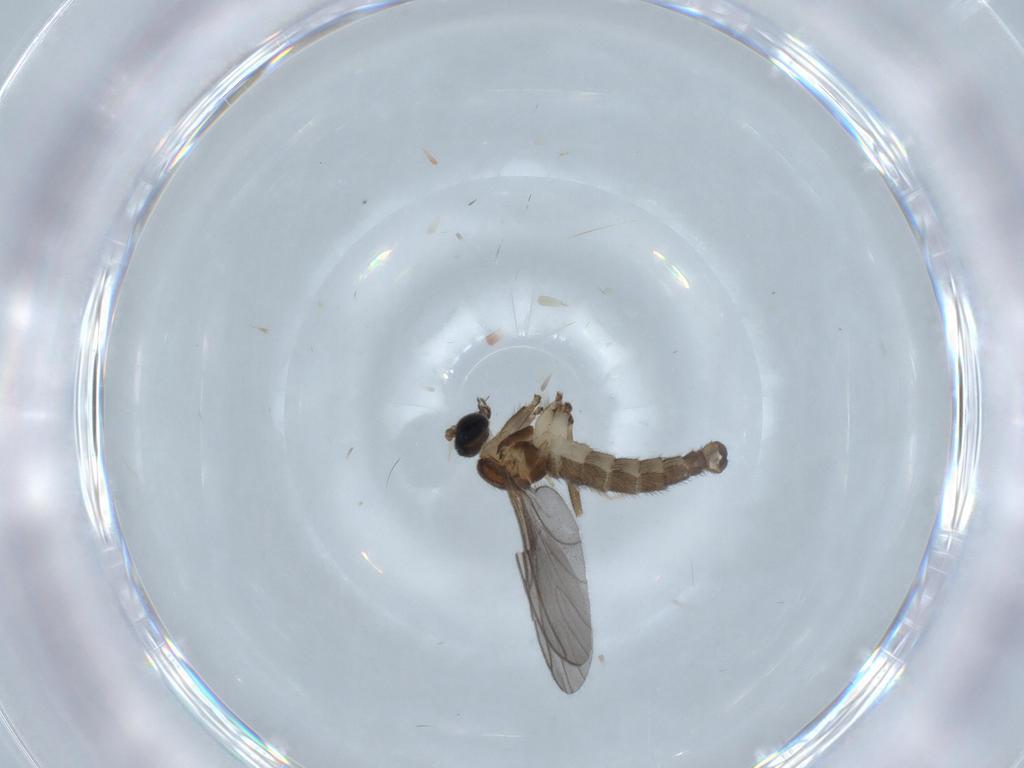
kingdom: Animalia
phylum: Arthropoda
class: Insecta
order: Diptera
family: Sciaridae
